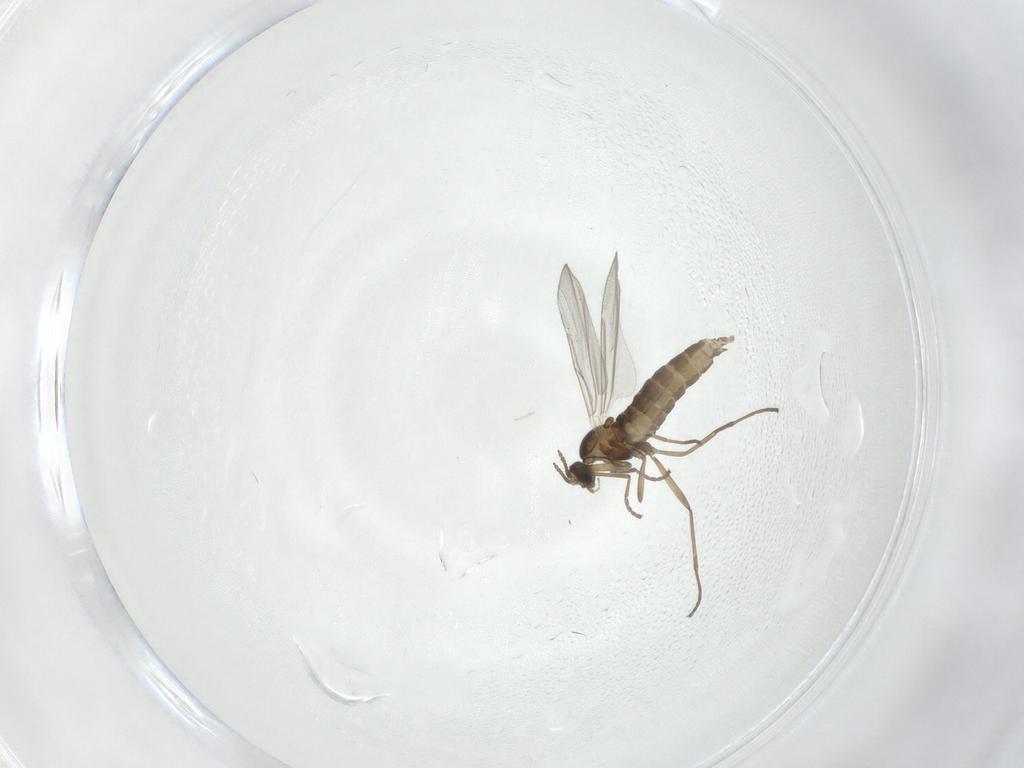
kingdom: Animalia
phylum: Arthropoda
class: Insecta
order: Diptera
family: Cecidomyiidae
